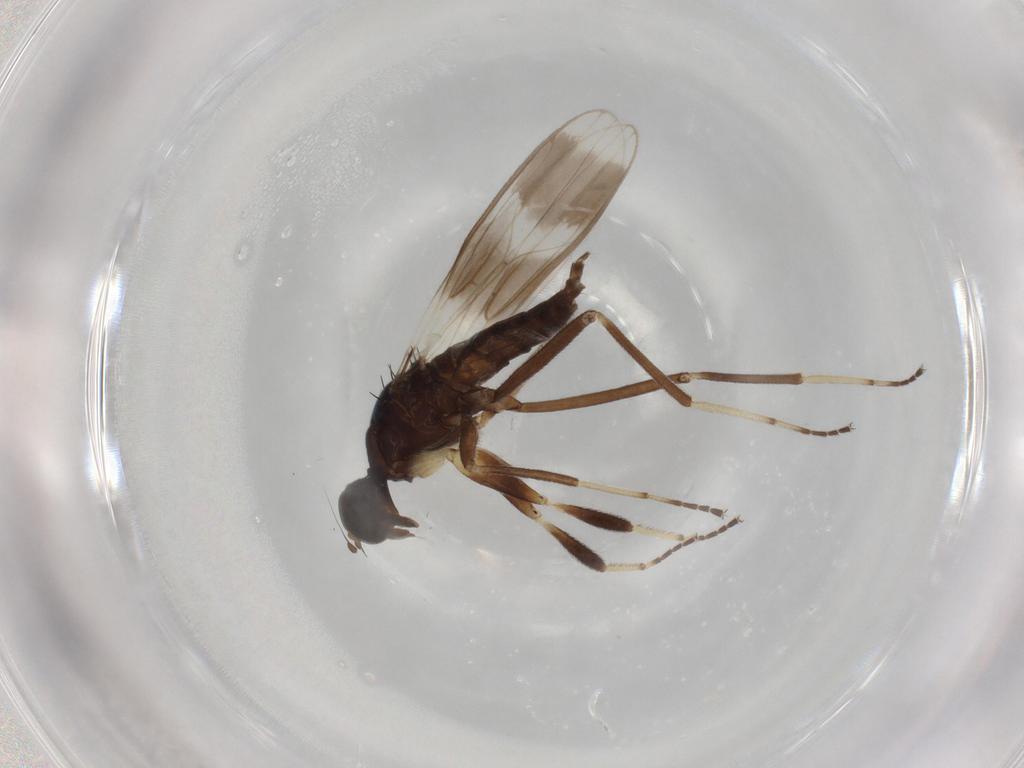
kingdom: Animalia
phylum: Arthropoda
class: Insecta
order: Diptera
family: Hybotidae
